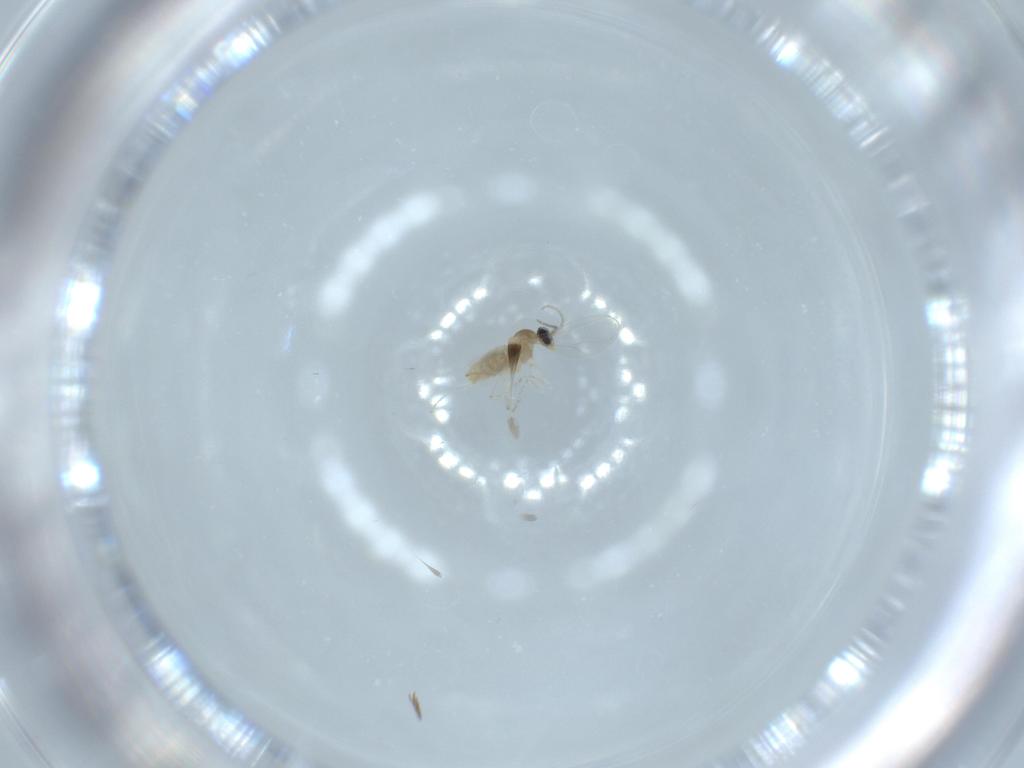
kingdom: Animalia
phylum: Arthropoda
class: Insecta
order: Diptera
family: Cecidomyiidae
